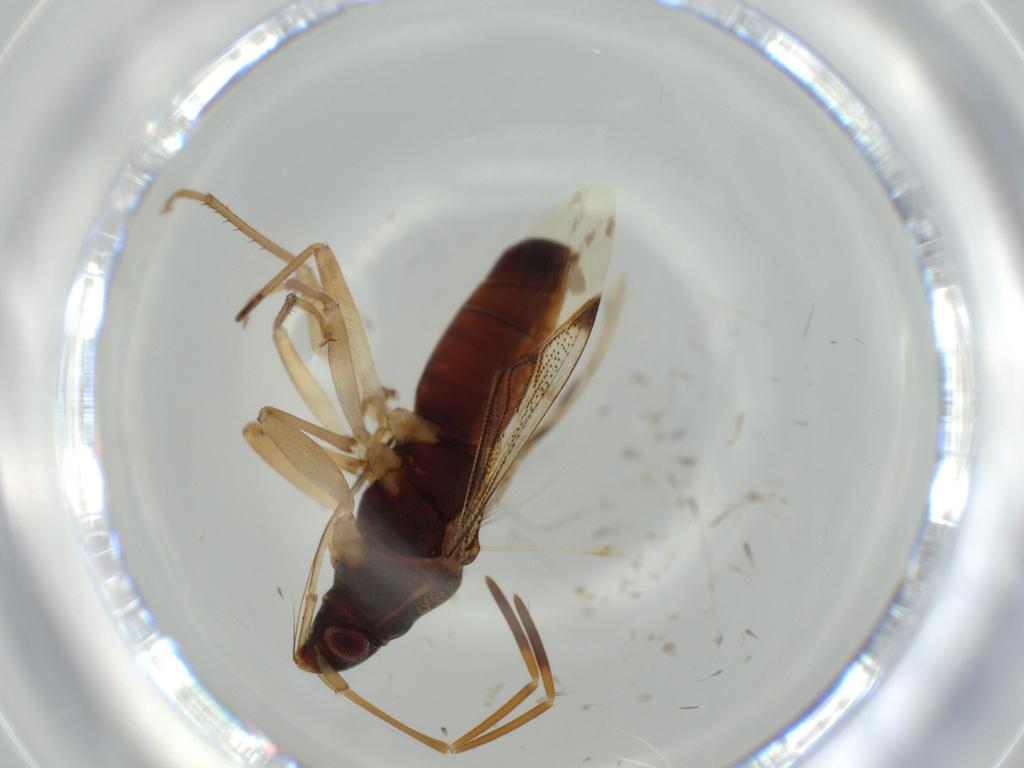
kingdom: Animalia
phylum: Arthropoda
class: Insecta
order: Hemiptera
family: Rhyparochromidae
